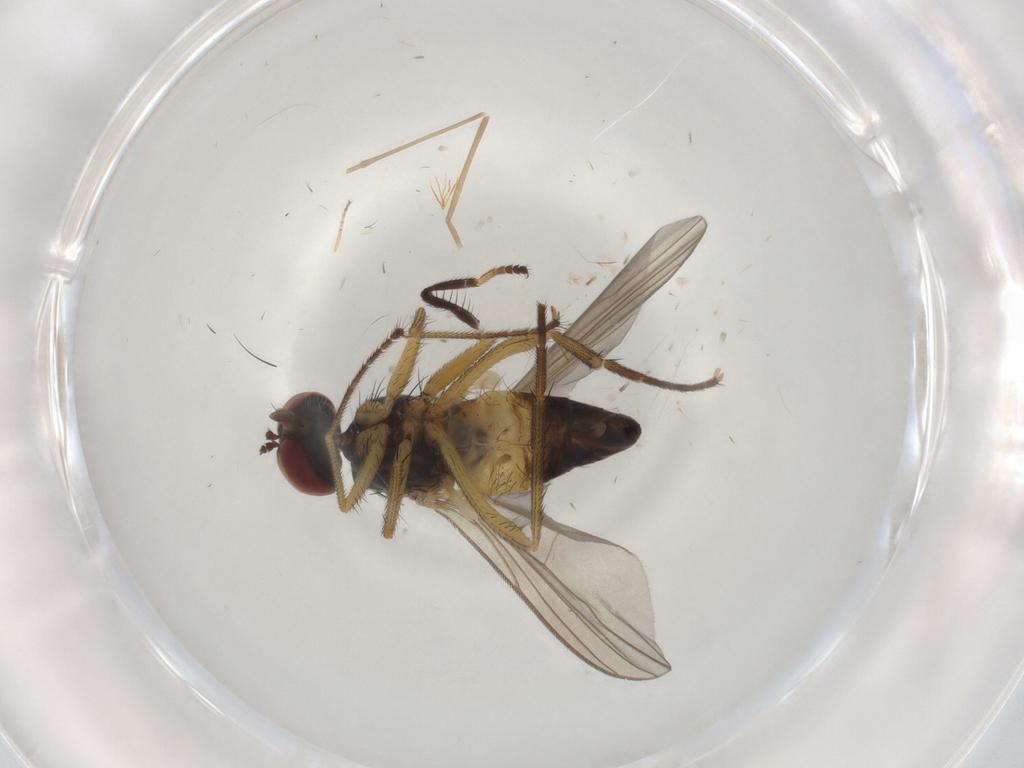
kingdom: Animalia
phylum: Arthropoda
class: Insecta
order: Diptera
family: Dolichopodidae
